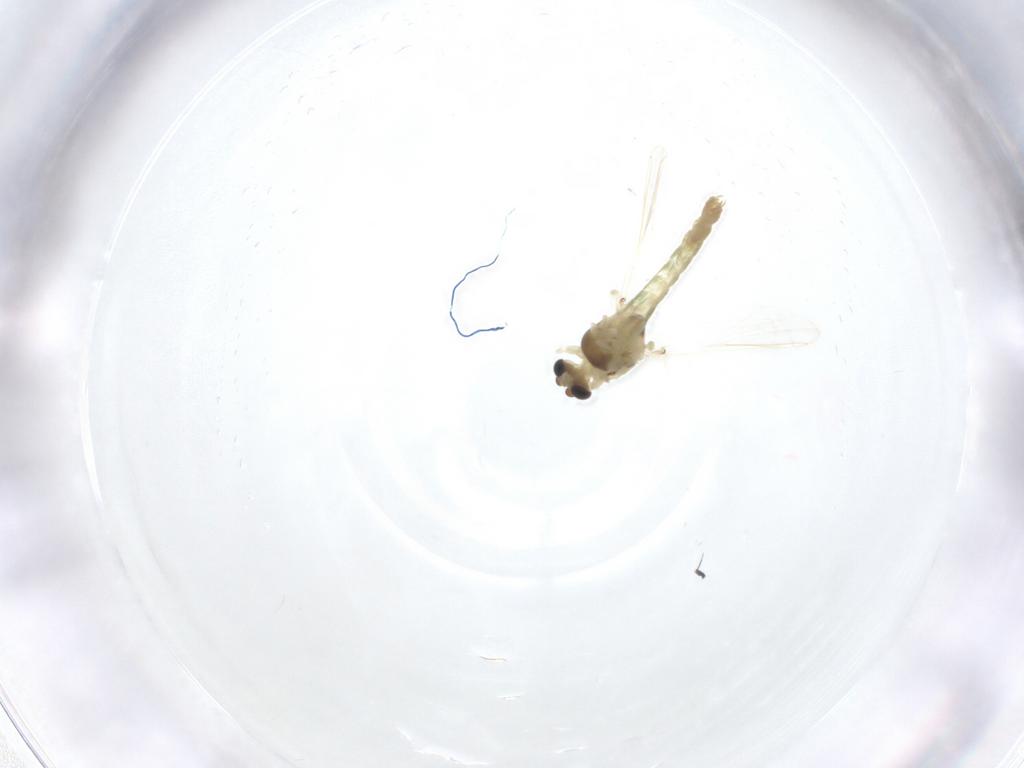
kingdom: Animalia
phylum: Arthropoda
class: Insecta
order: Diptera
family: Chironomidae
